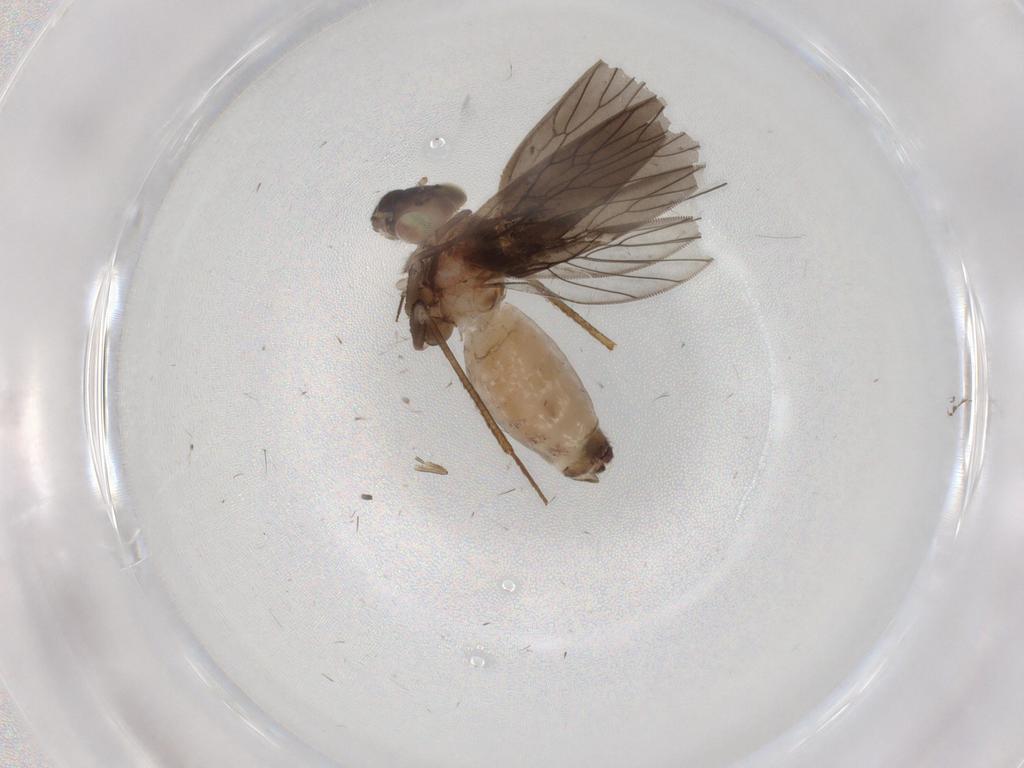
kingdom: Animalia
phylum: Arthropoda
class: Insecta
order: Psocodea
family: Lepidopsocidae
